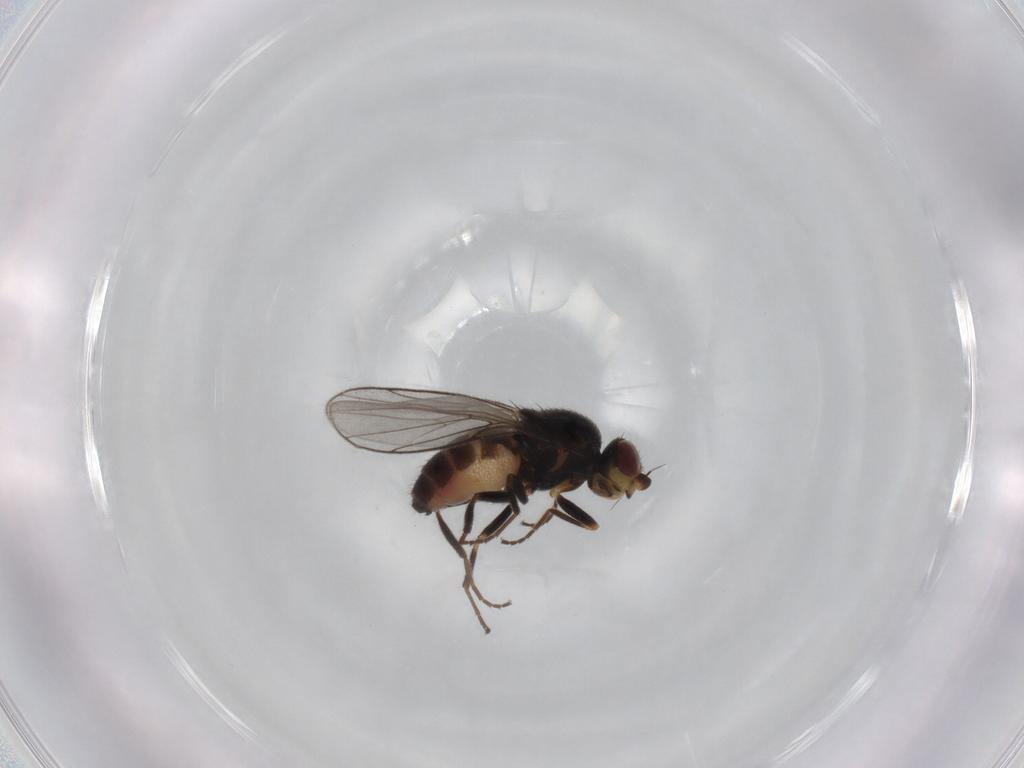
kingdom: Animalia
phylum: Arthropoda
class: Insecta
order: Diptera
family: Chloropidae
